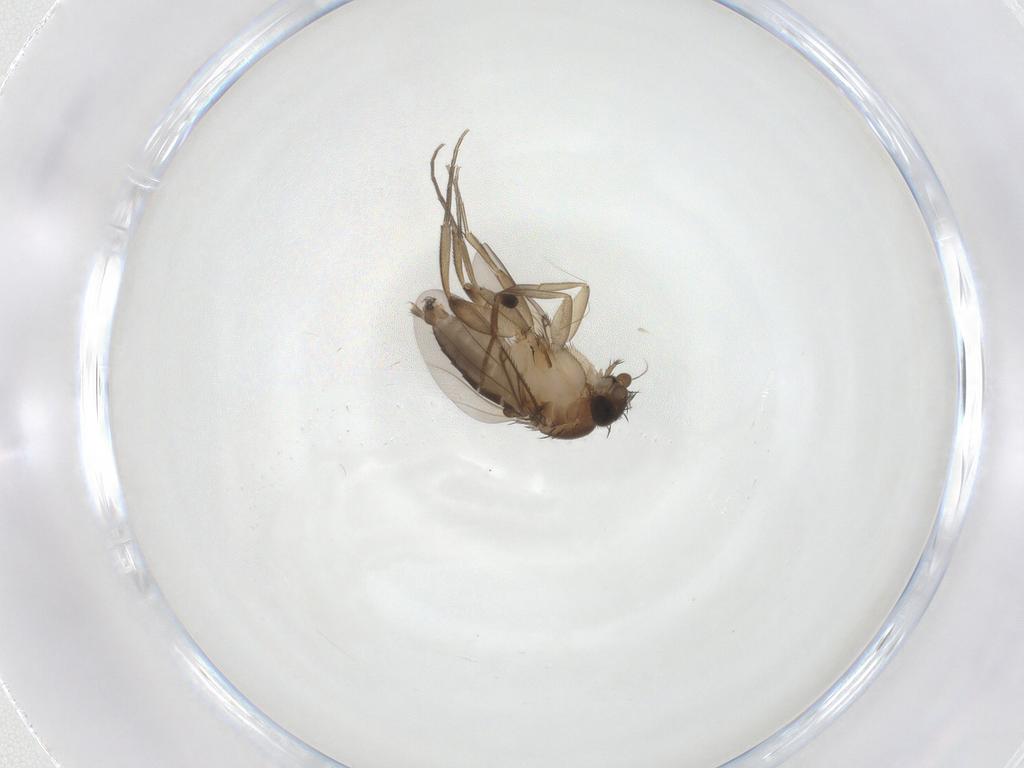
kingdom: Animalia
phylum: Arthropoda
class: Insecta
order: Diptera
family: Phoridae
